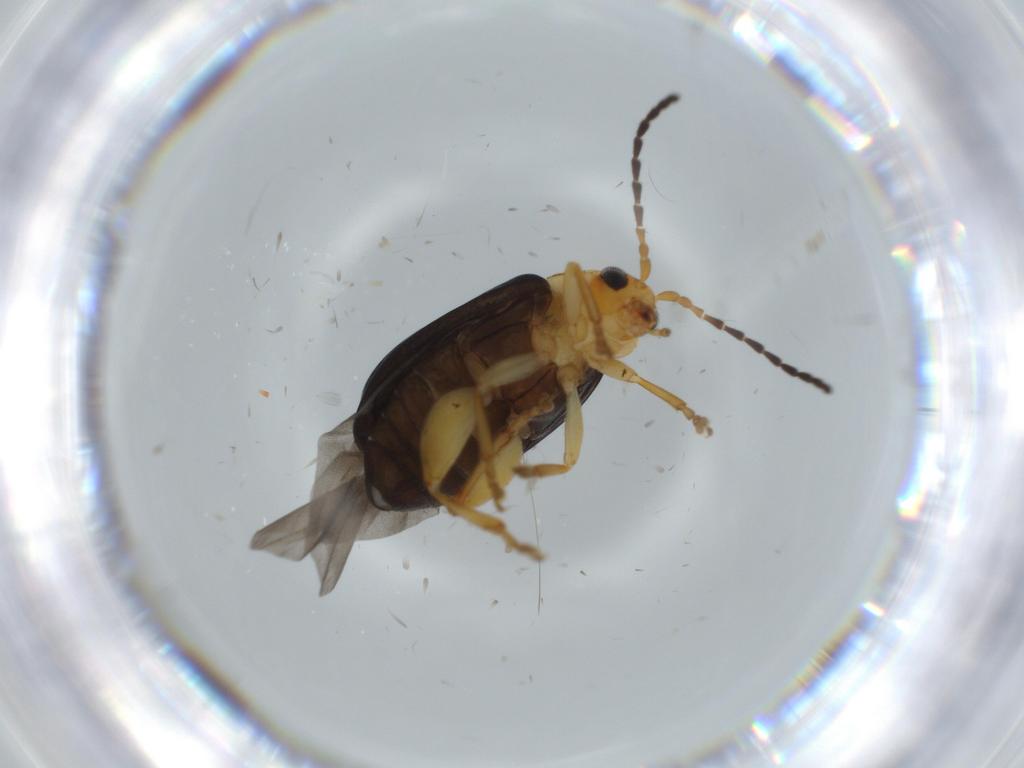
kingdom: Animalia
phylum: Arthropoda
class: Insecta
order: Coleoptera
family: Chrysomelidae
